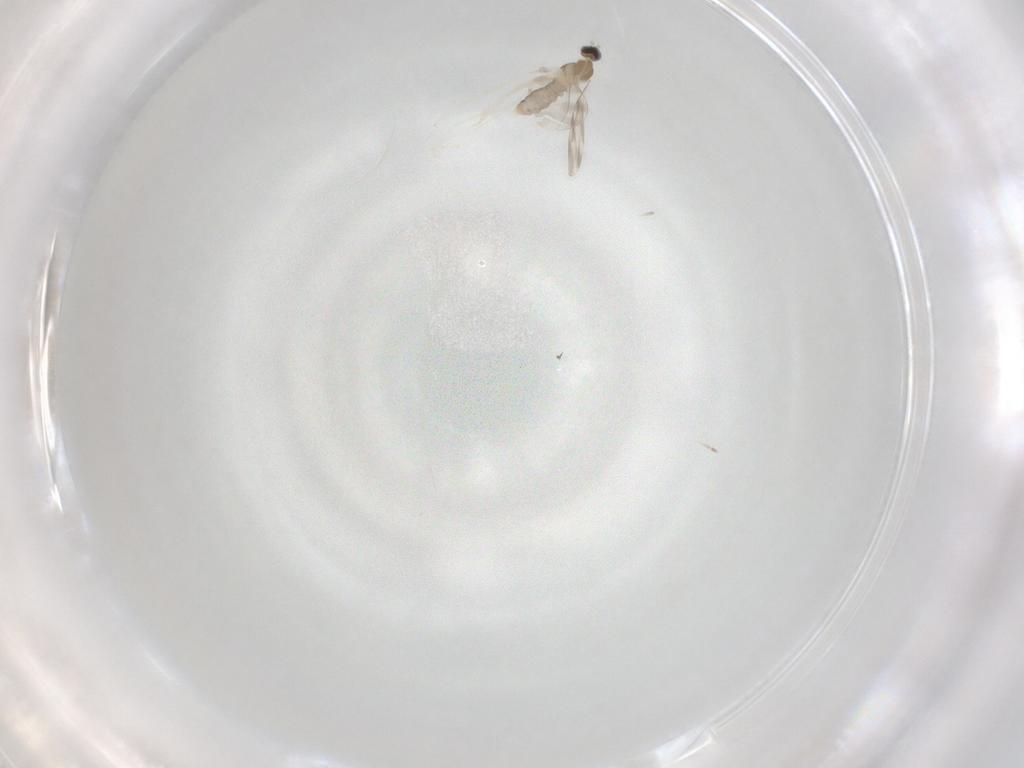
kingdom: Animalia
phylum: Arthropoda
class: Insecta
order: Diptera
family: Cecidomyiidae
